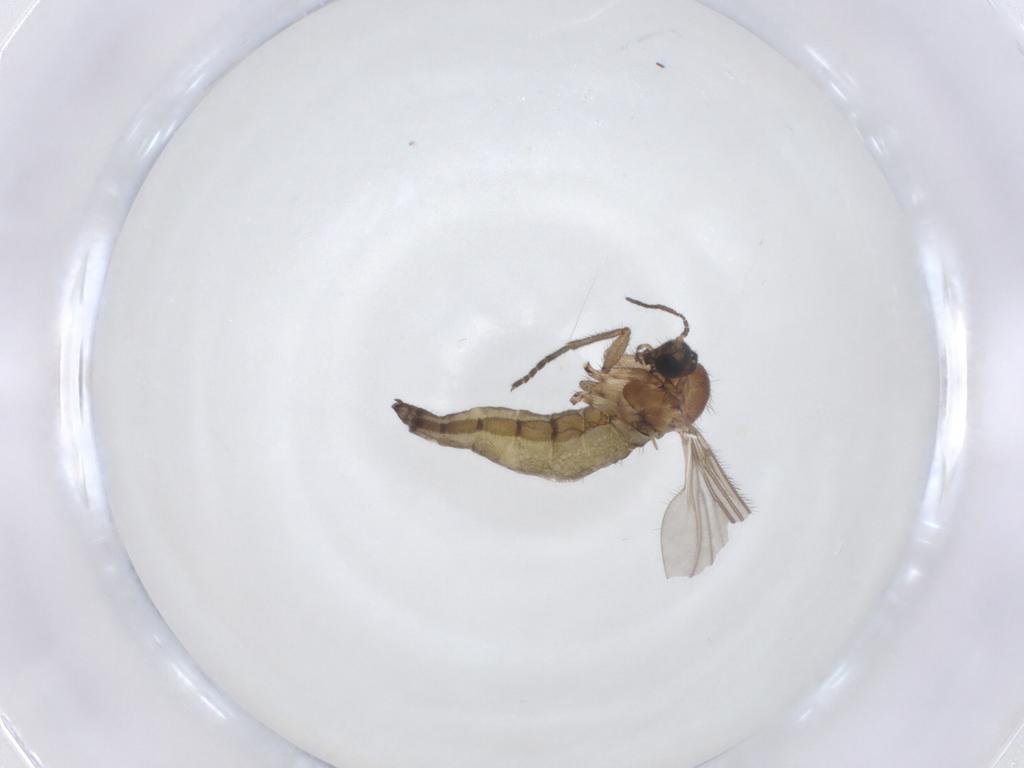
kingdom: Animalia
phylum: Arthropoda
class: Insecta
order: Diptera
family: Sciaridae
